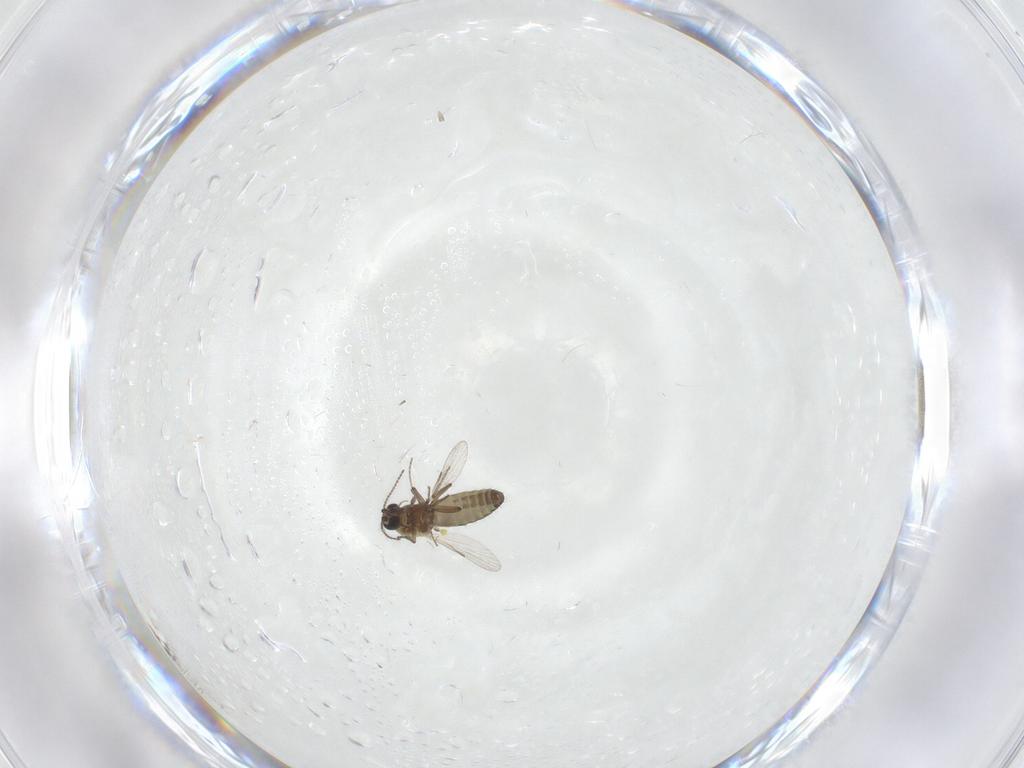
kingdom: Animalia
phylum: Arthropoda
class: Insecta
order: Diptera
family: Ceratopogonidae
